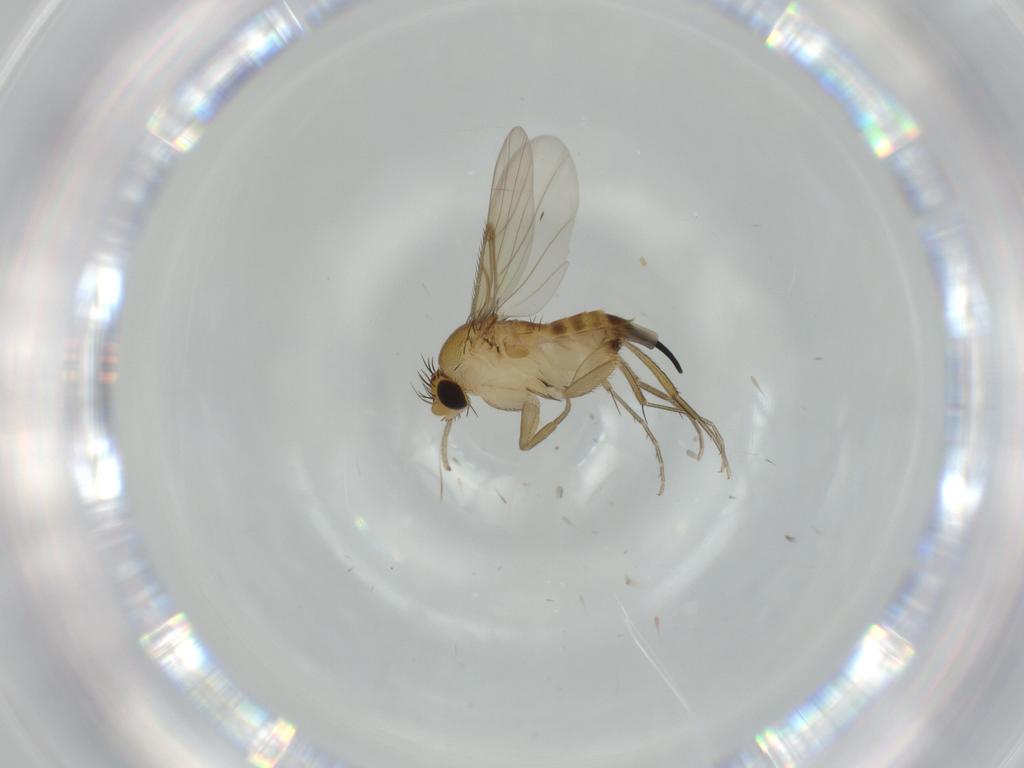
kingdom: Animalia
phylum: Arthropoda
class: Insecta
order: Diptera
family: Phoridae
